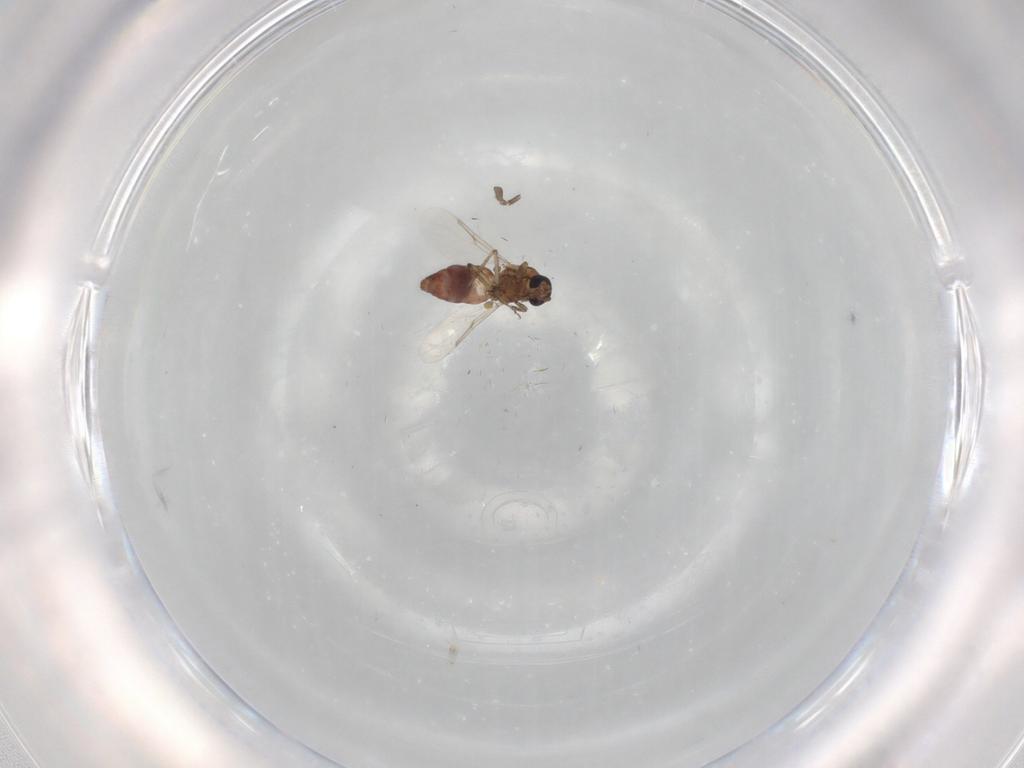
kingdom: Animalia
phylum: Arthropoda
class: Insecta
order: Diptera
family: Ceratopogonidae
